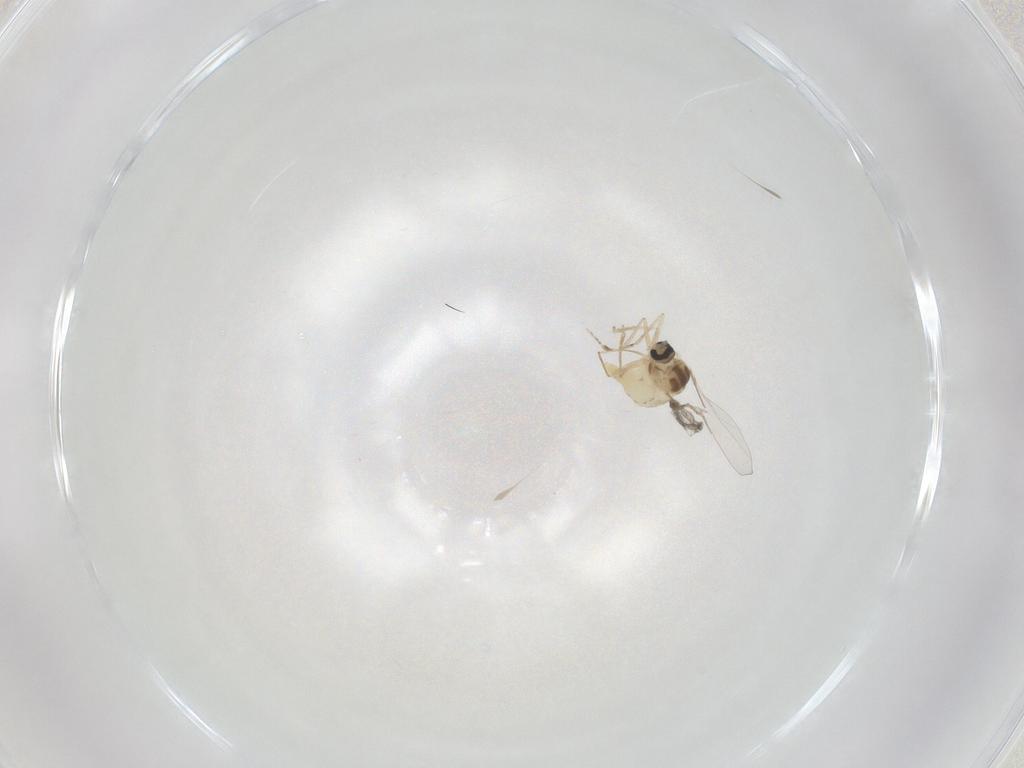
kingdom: Animalia
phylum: Arthropoda
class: Insecta
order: Diptera
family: Cecidomyiidae
